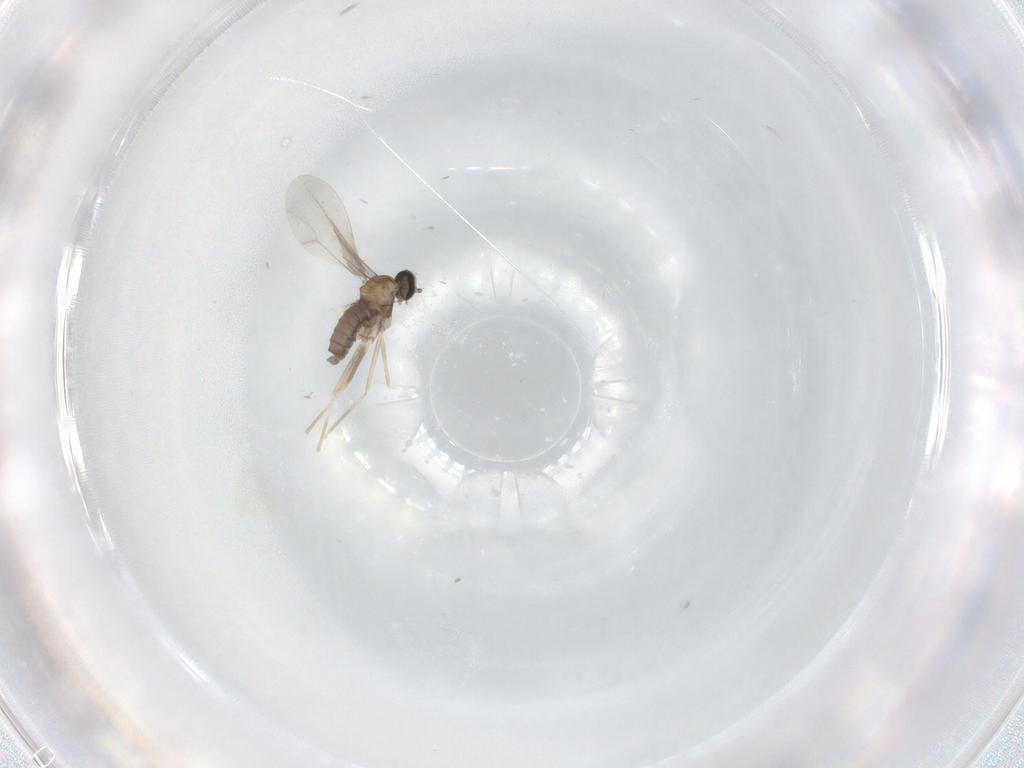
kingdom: Animalia
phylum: Arthropoda
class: Insecta
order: Diptera
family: Cecidomyiidae
